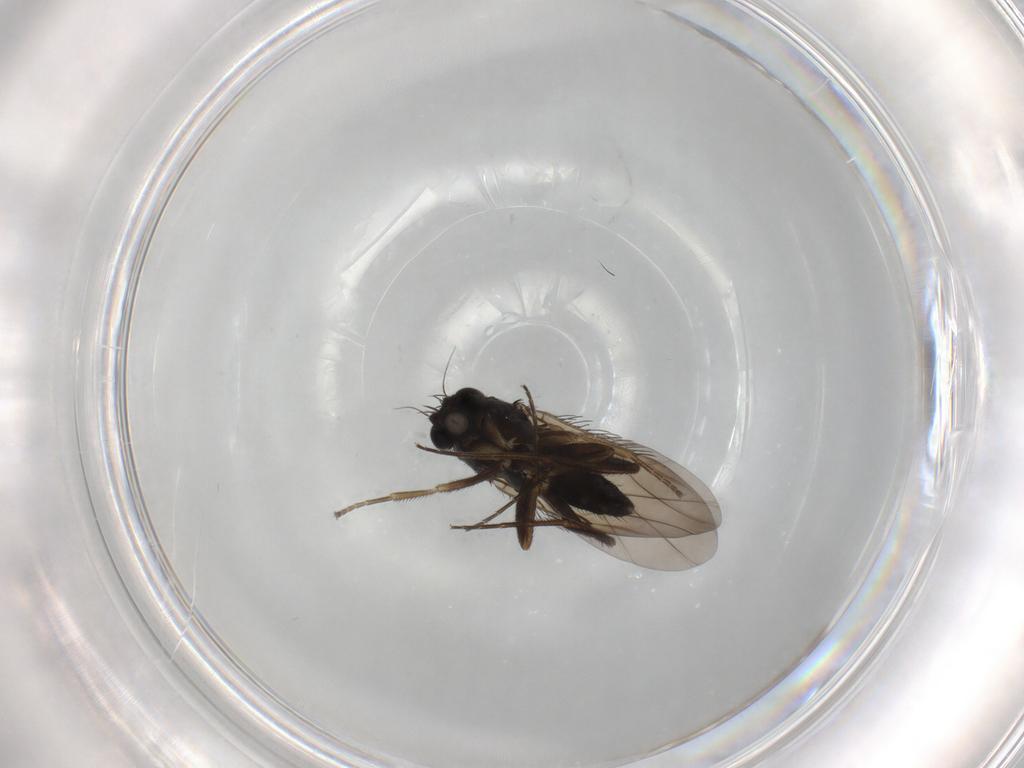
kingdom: Animalia
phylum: Arthropoda
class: Insecta
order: Diptera
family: Phoridae
